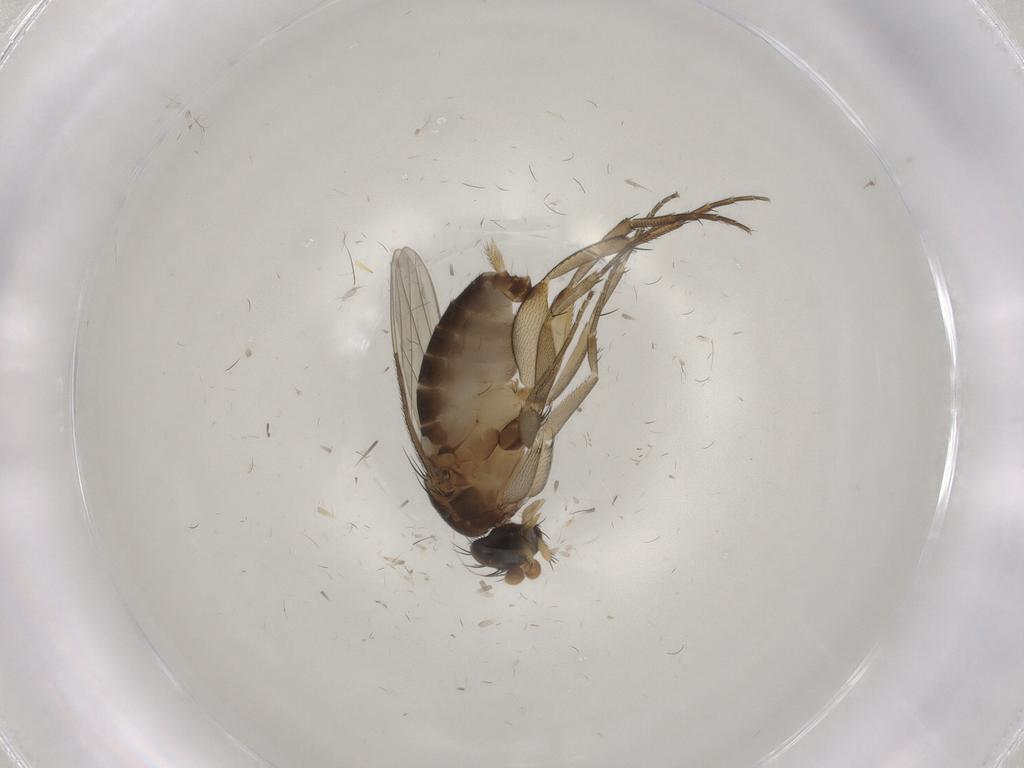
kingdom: Animalia
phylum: Arthropoda
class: Insecta
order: Diptera
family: Phoridae
